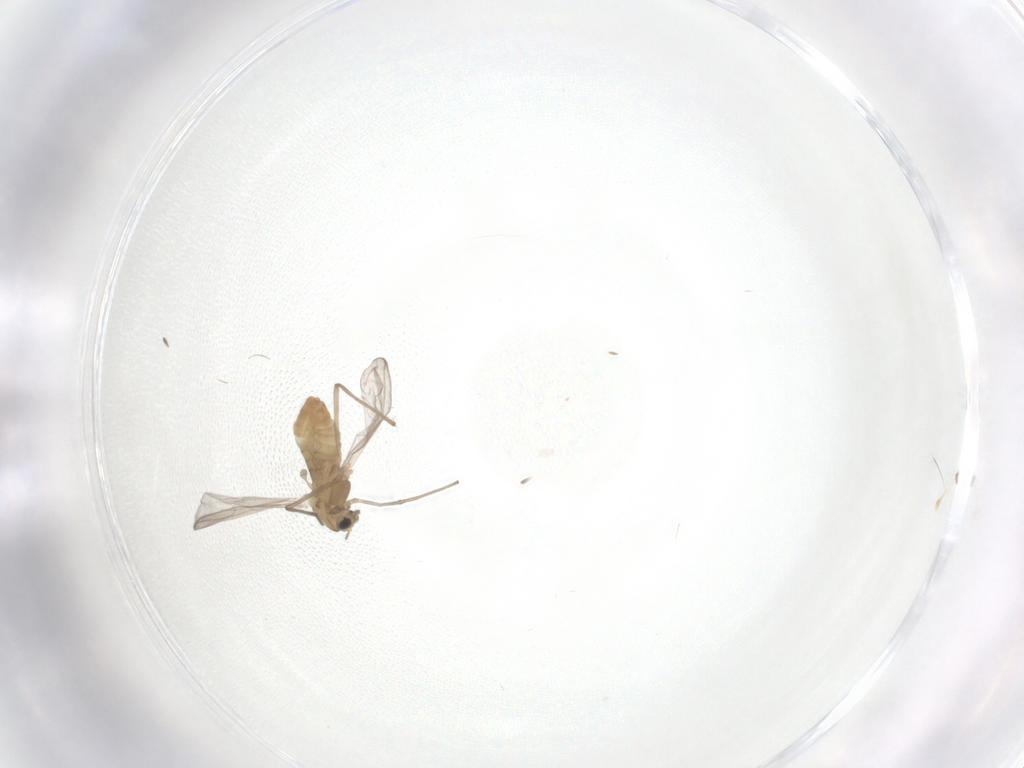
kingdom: Animalia
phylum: Arthropoda
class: Insecta
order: Diptera
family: Chironomidae
